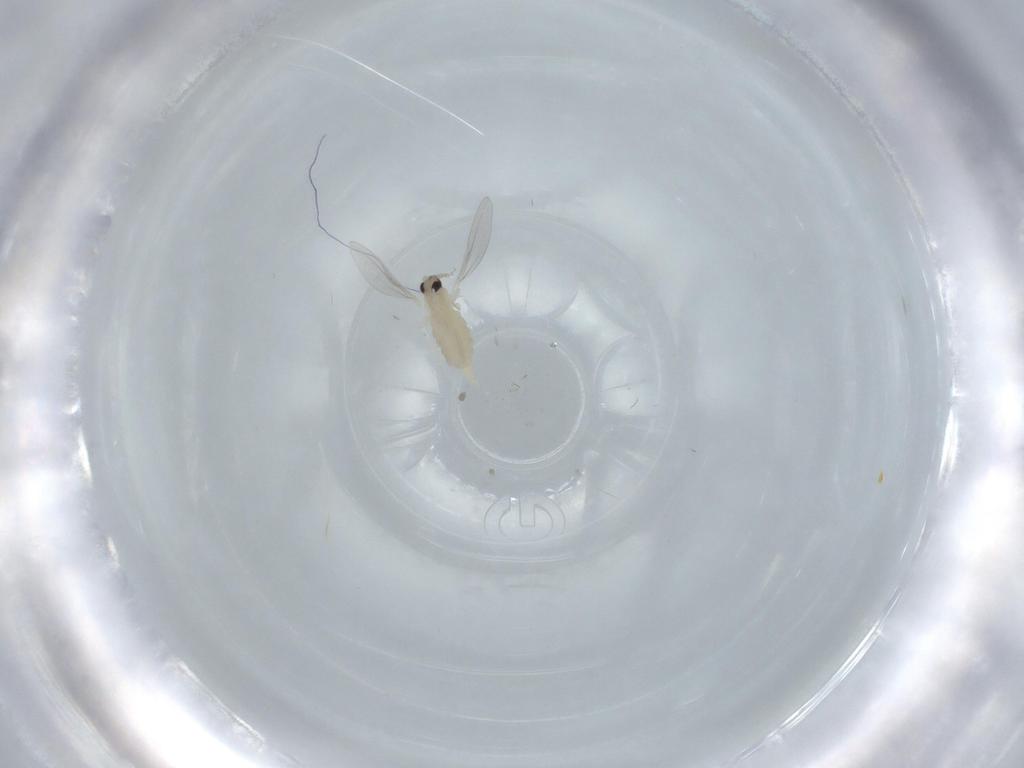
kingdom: Animalia
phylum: Arthropoda
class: Insecta
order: Diptera
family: Cecidomyiidae
